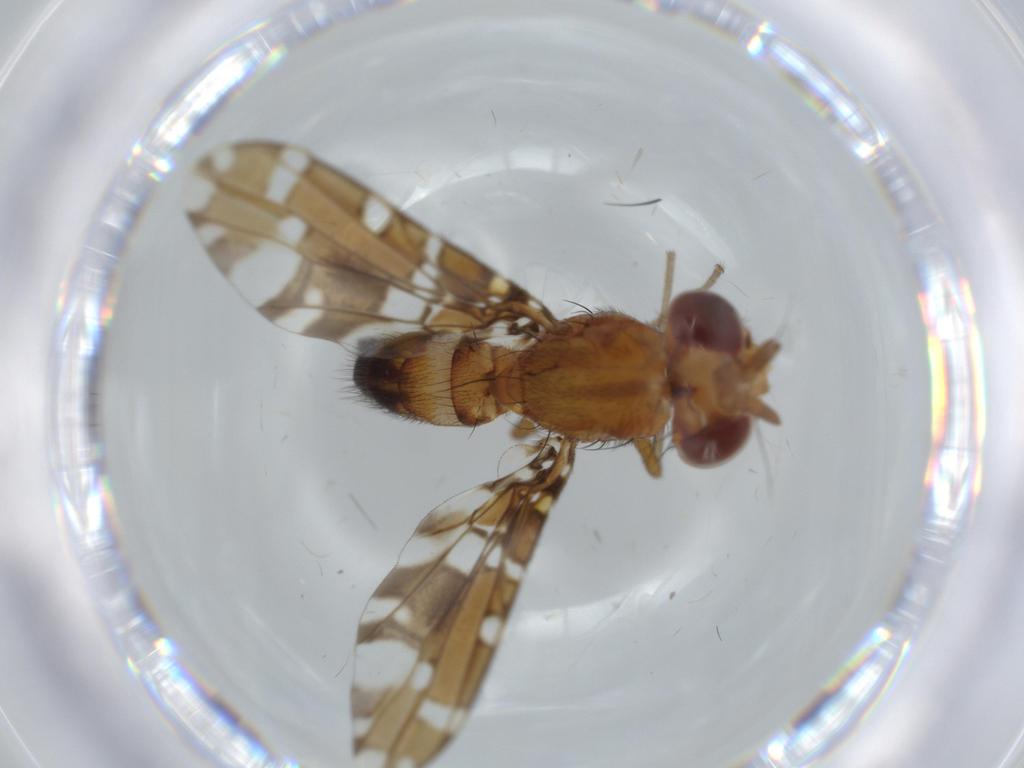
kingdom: Animalia
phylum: Arthropoda
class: Insecta
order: Diptera
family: Ulidiidae
